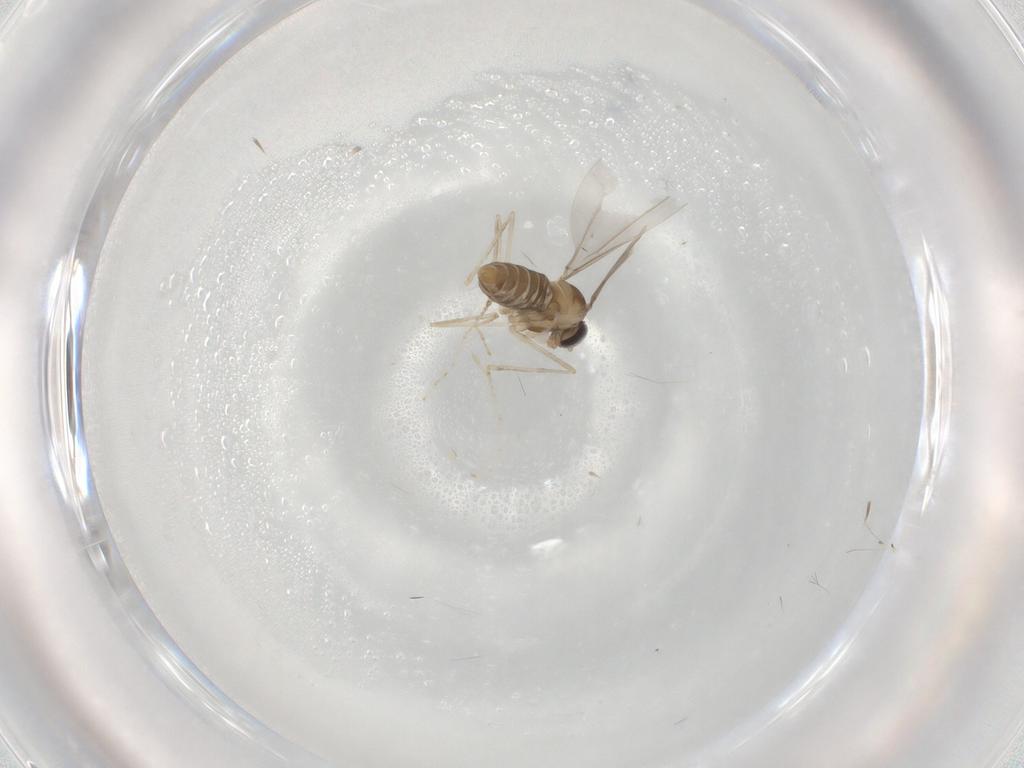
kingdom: Animalia
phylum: Arthropoda
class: Insecta
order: Diptera
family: Cecidomyiidae
